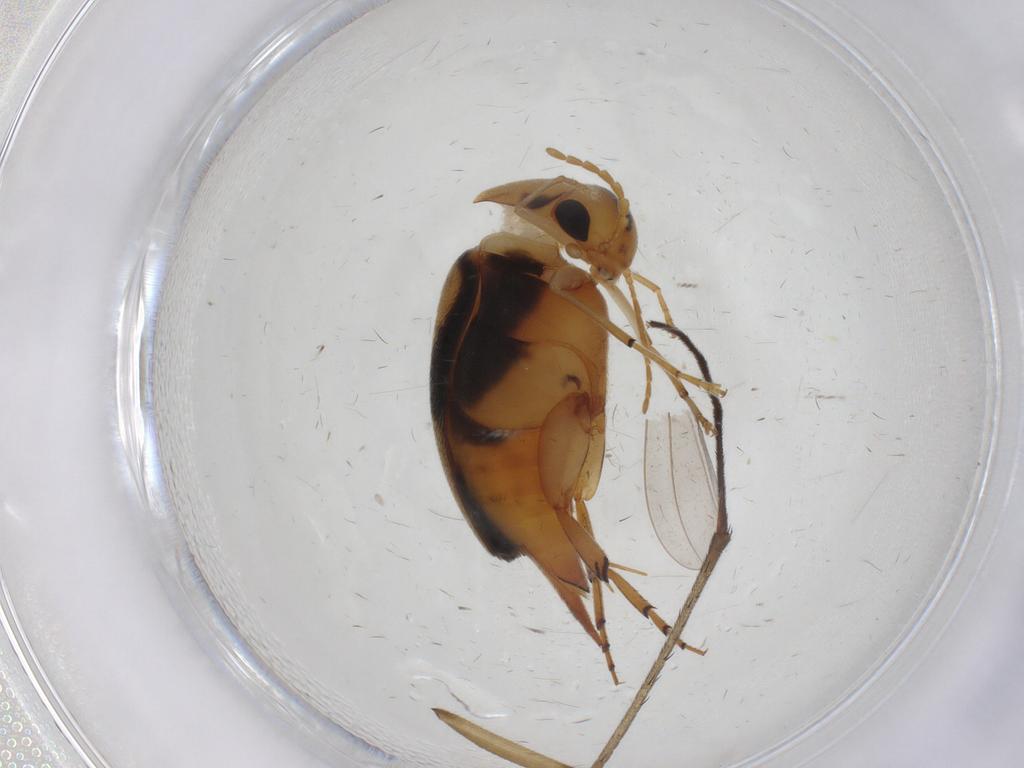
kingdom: Animalia
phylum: Arthropoda
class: Insecta
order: Coleoptera
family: Mordellidae
